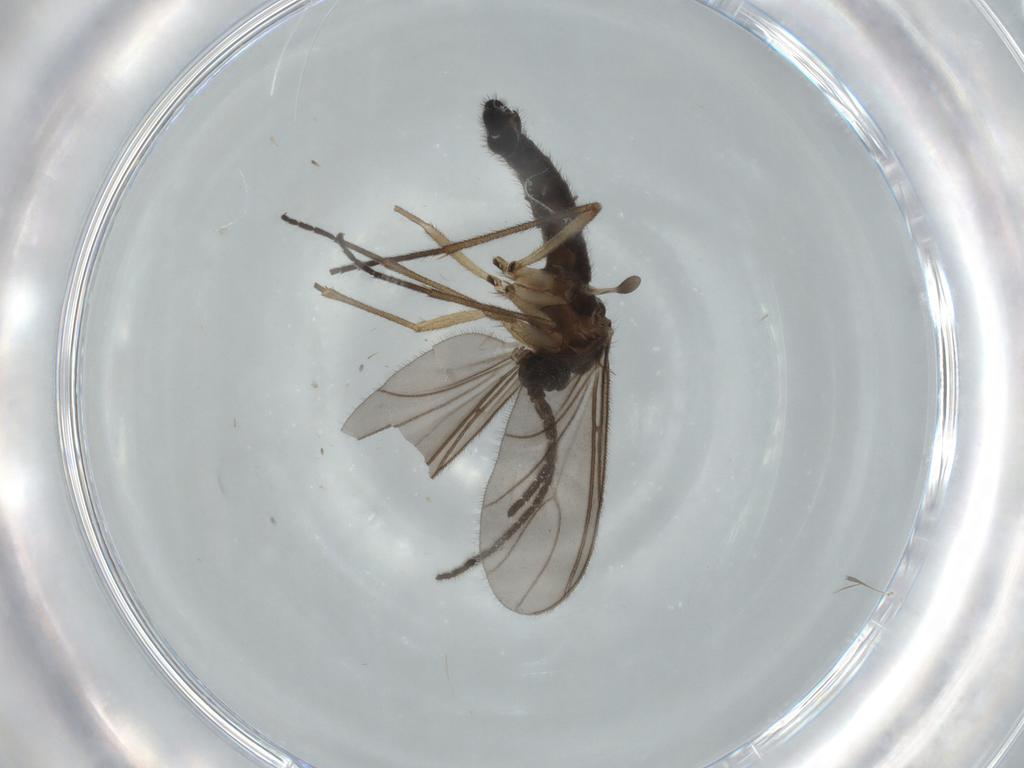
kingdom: Animalia
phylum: Arthropoda
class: Insecta
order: Diptera
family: Sciaridae
